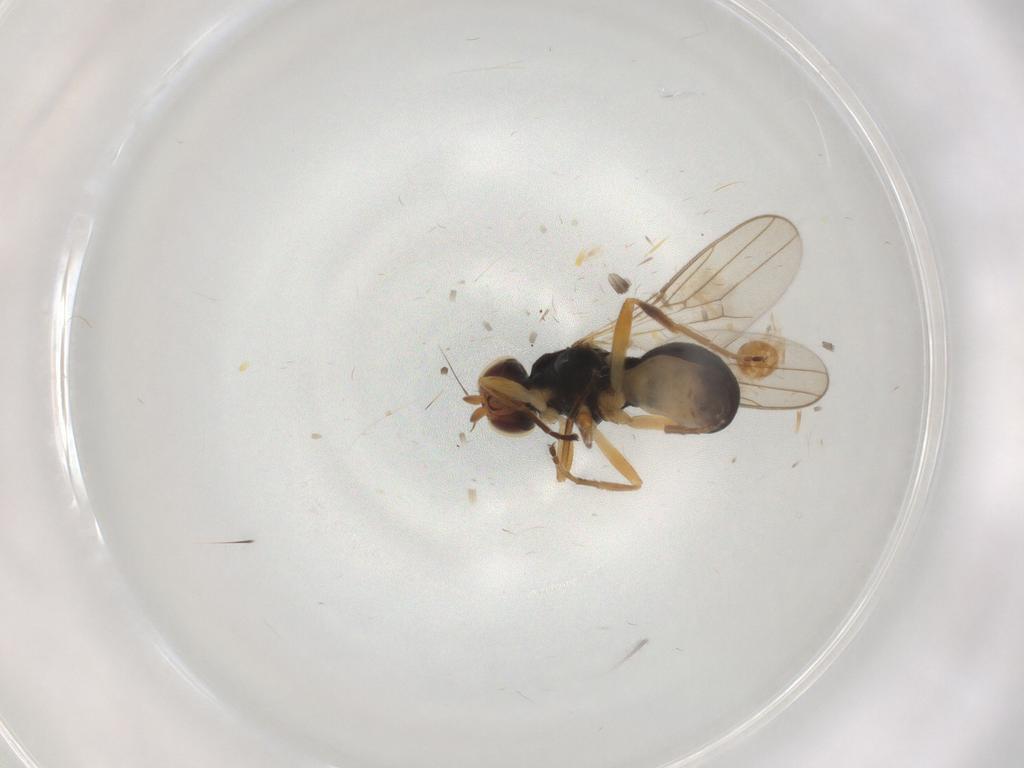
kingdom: Animalia
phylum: Arthropoda
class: Insecta
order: Diptera
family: Chloropidae
